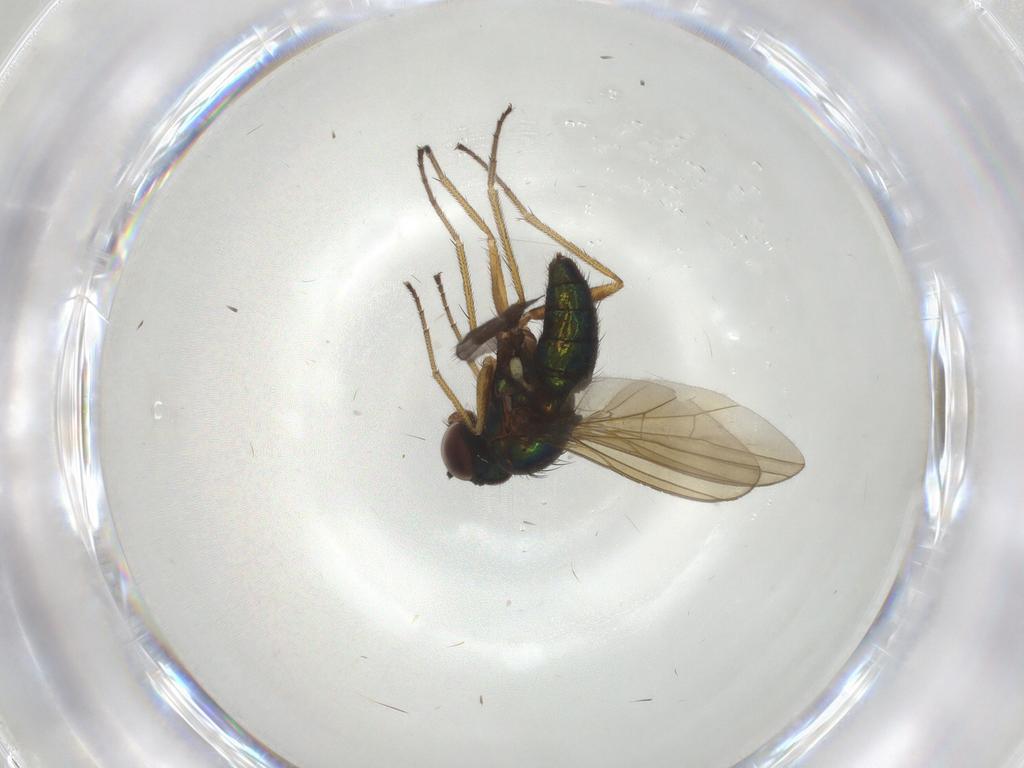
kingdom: Animalia
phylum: Arthropoda
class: Insecta
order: Diptera
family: Dolichopodidae
